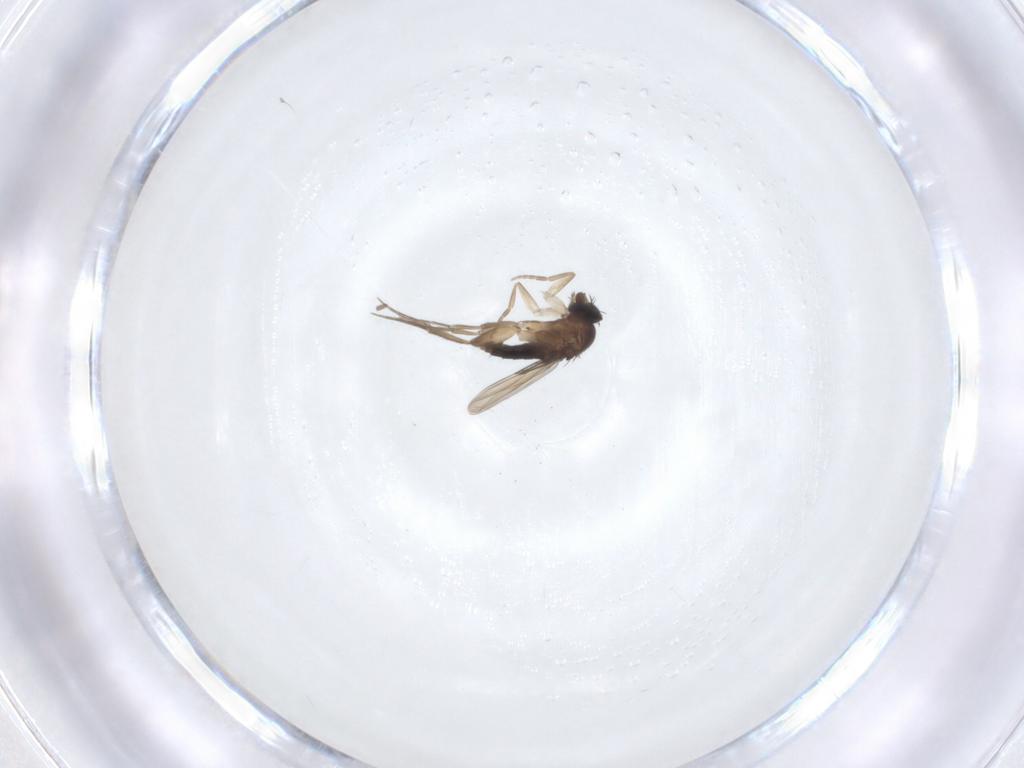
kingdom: Animalia
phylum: Arthropoda
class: Insecta
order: Diptera
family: Phoridae
